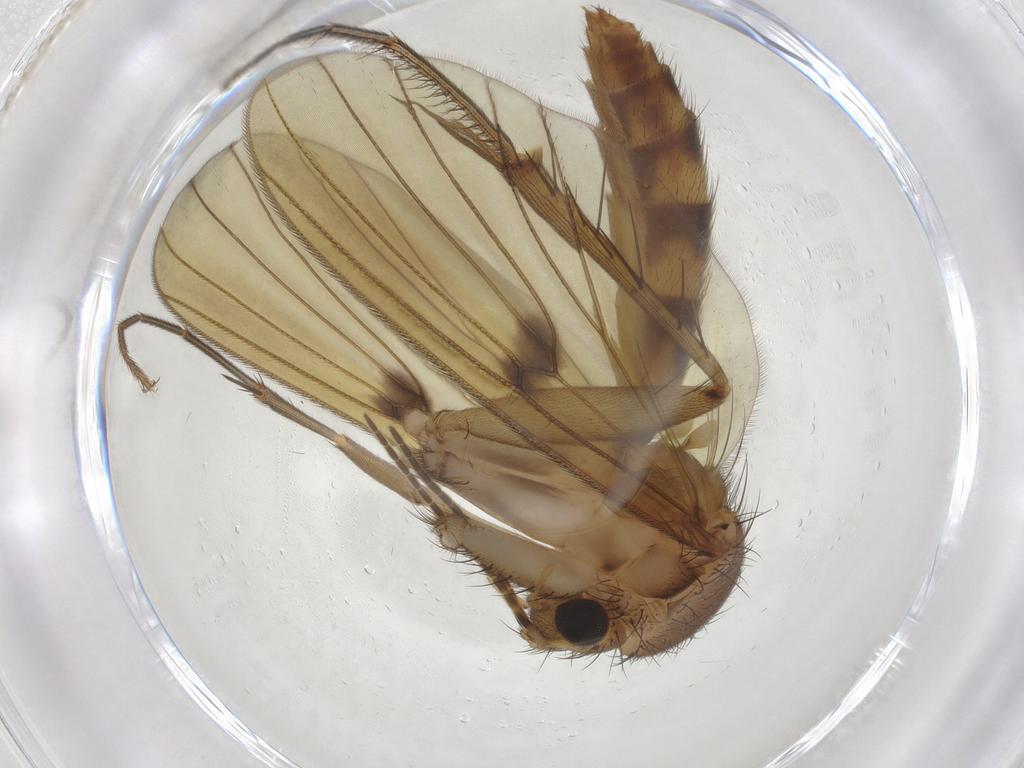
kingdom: Animalia
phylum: Arthropoda
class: Insecta
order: Diptera
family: Mycetophilidae
